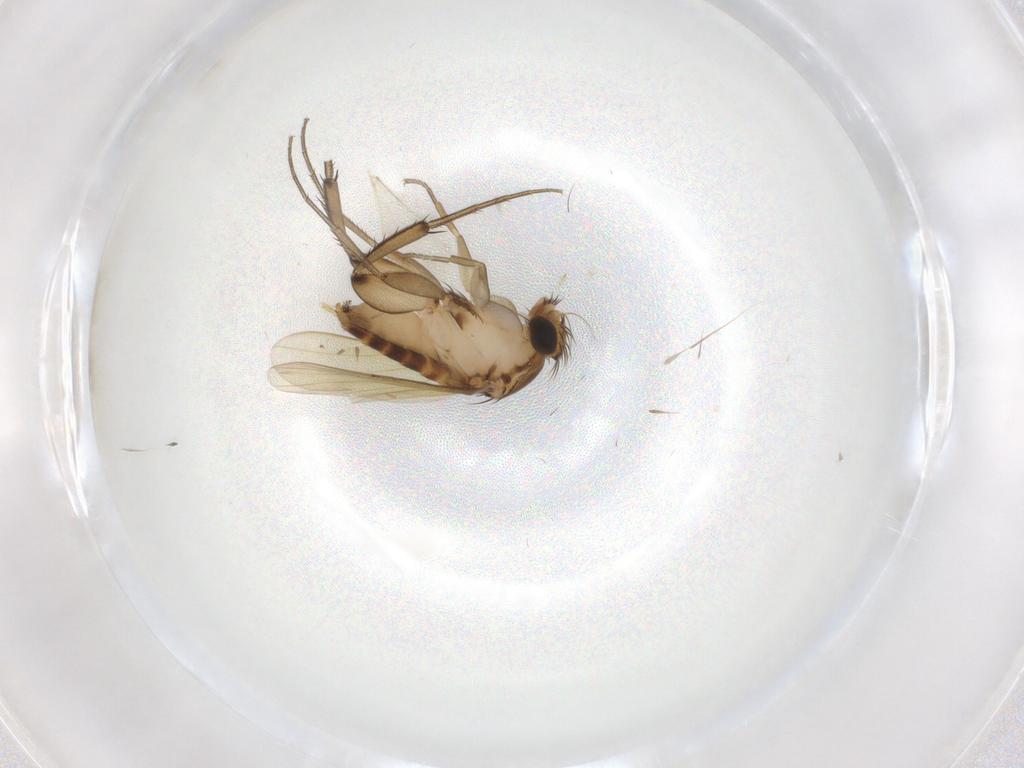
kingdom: Animalia
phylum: Arthropoda
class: Insecta
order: Diptera
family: Phoridae
